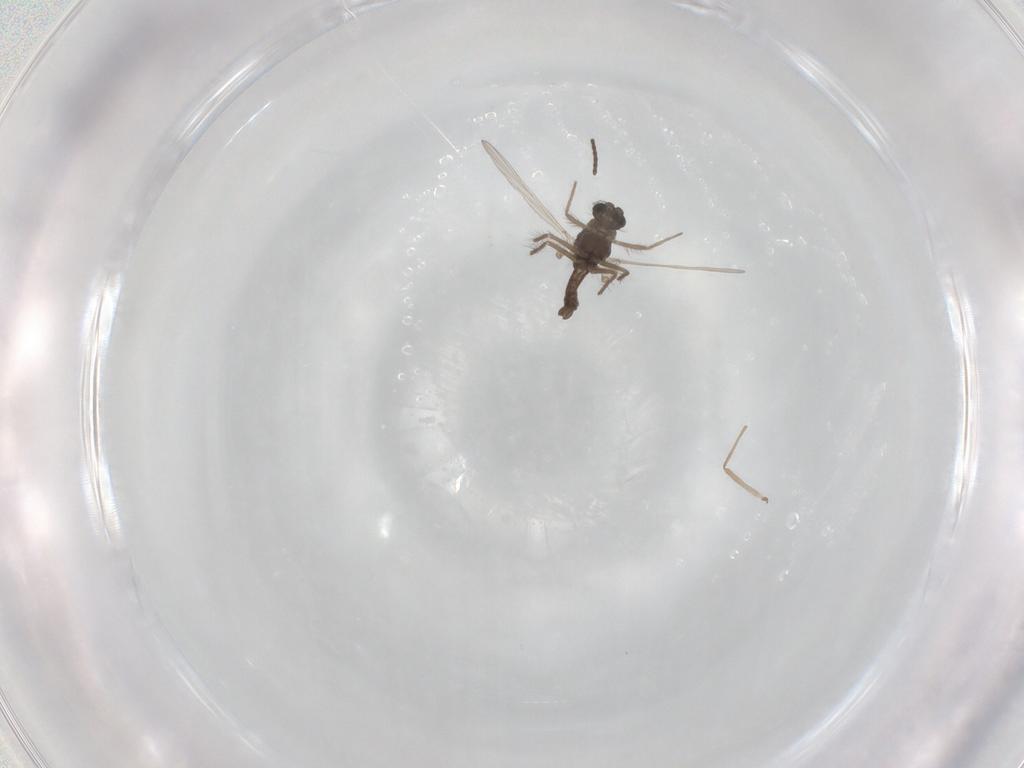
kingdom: Animalia
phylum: Arthropoda
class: Insecta
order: Diptera
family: Chironomidae
